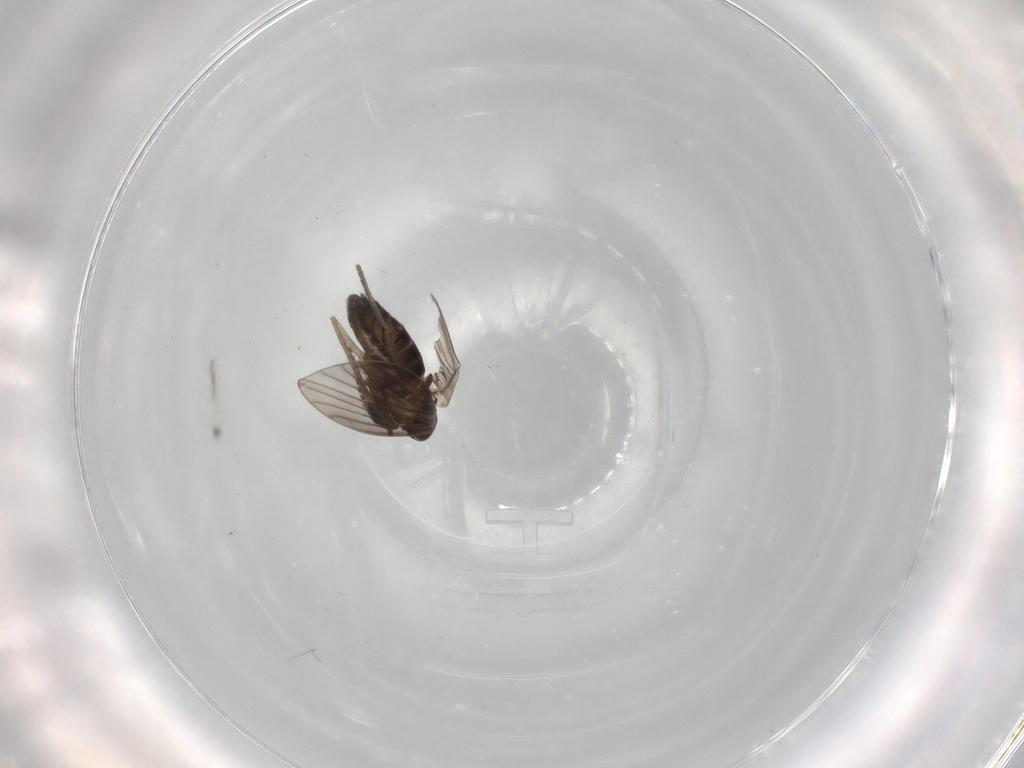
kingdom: Animalia
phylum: Arthropoda
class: Insecta
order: Diptera
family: Cecidomyiidae
